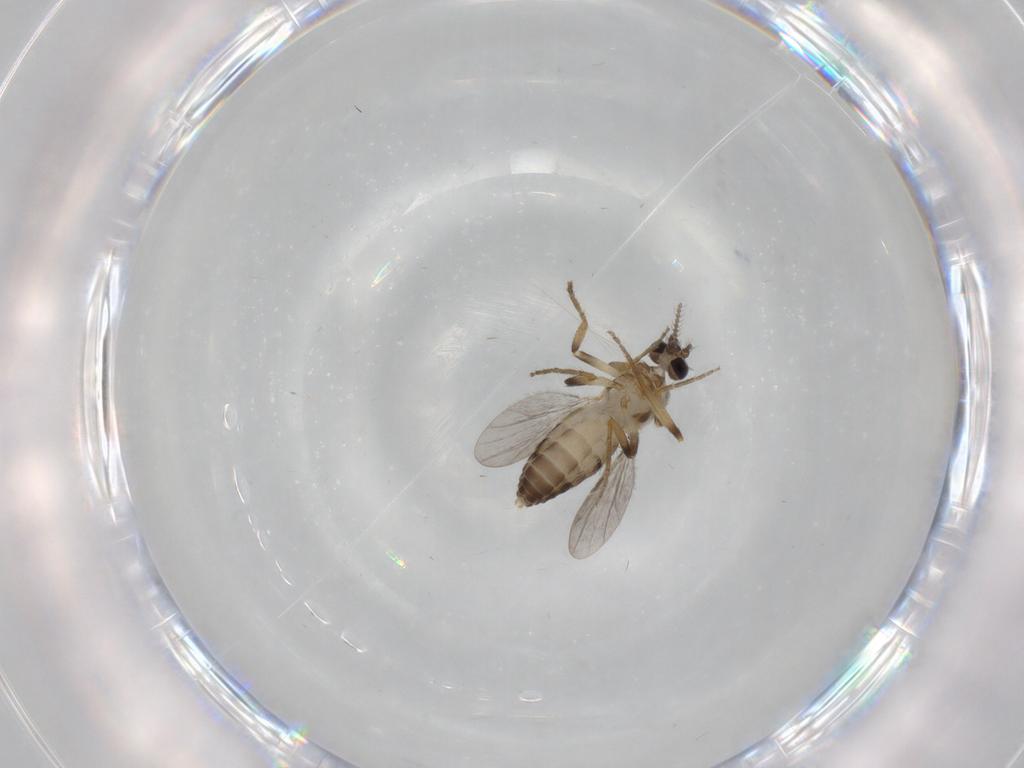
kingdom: Animalia
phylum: Arthropoda
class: Insecta
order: Diptera
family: Ceratopogonidae
